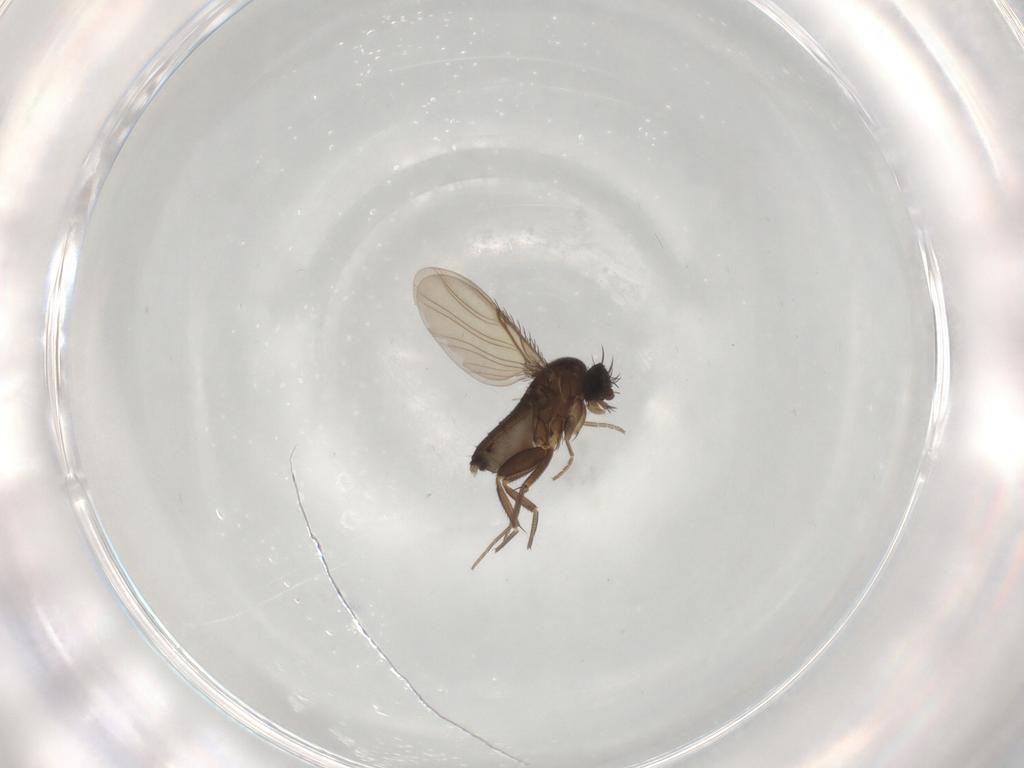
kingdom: Animalia
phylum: Arthropoda
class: Insecta
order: Diptera
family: Phoridae
